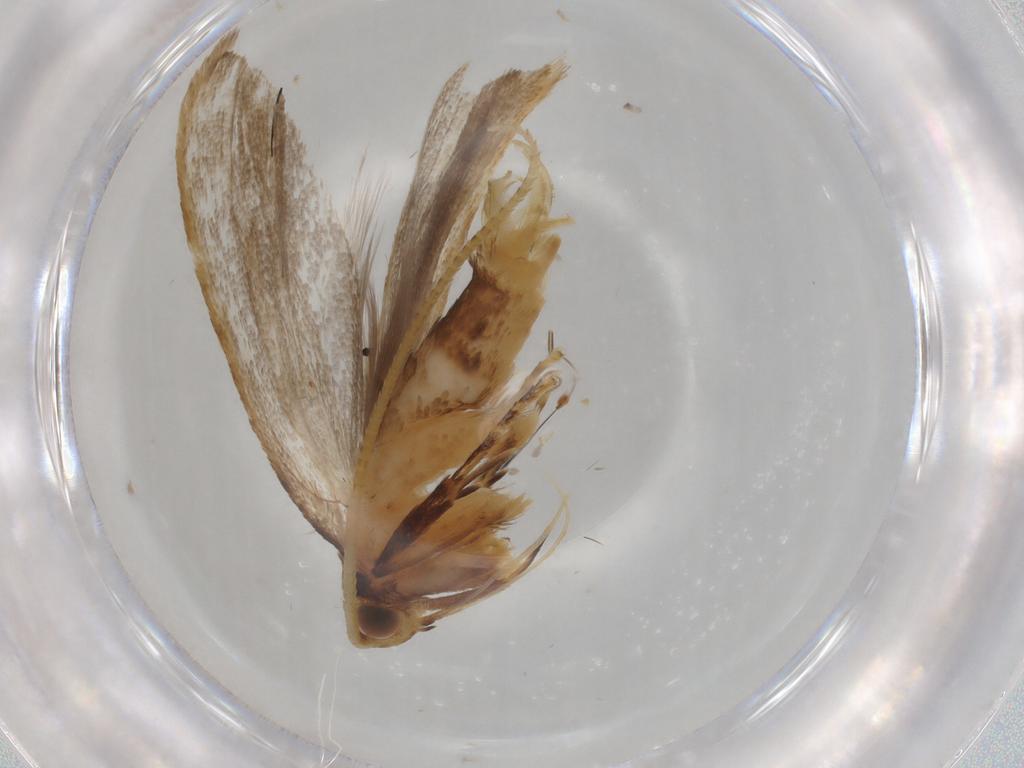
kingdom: Animalia
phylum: Arthropoda
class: Insecta
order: Lepidoptera
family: Lecithoceridae
